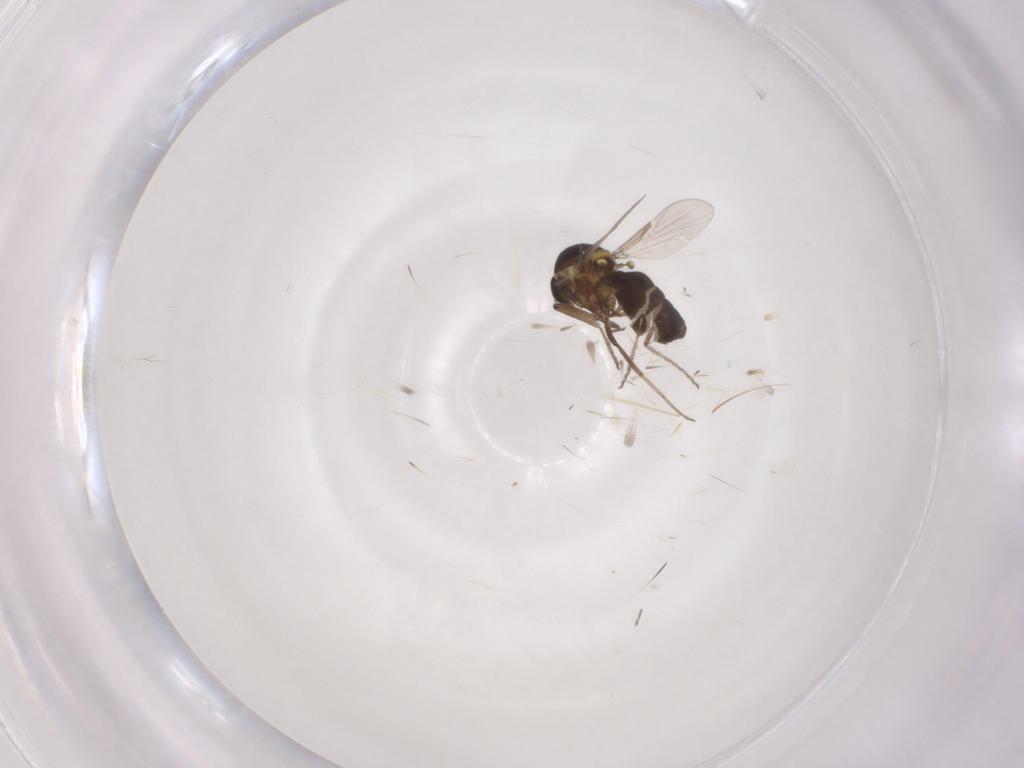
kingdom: Animalia
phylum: Arthropoda
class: Insecta
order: Diptera
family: Ceratopogonidae
